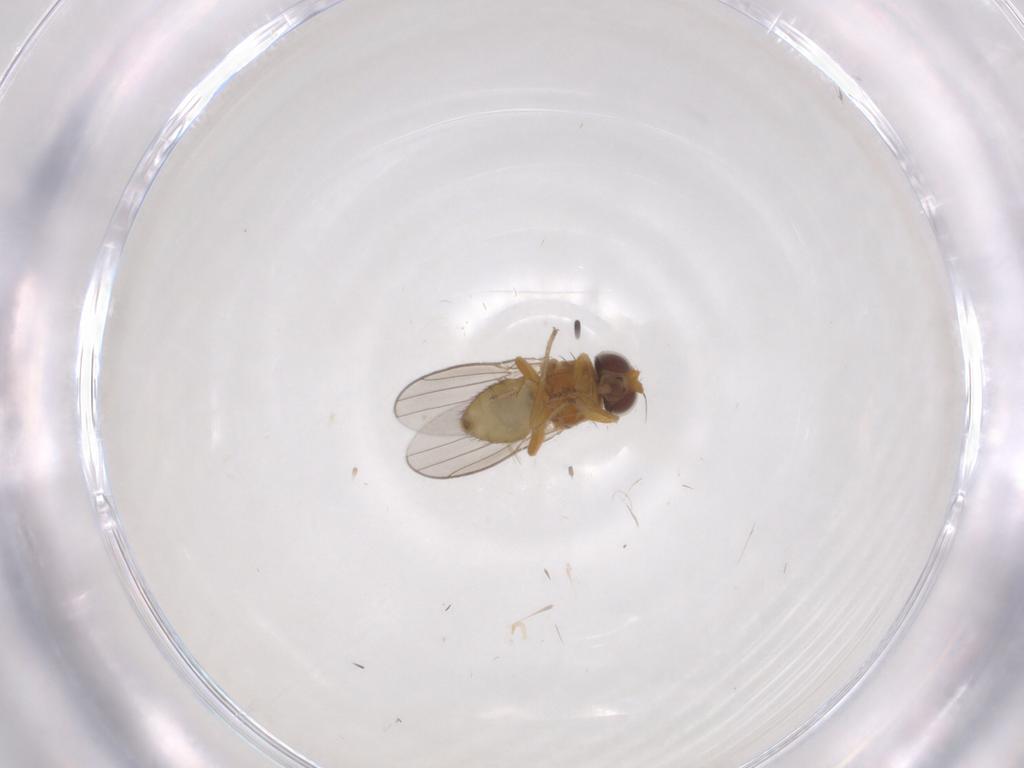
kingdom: Animalia
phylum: Arthropoda
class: Insecta
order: Diptera
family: Chloropidae
